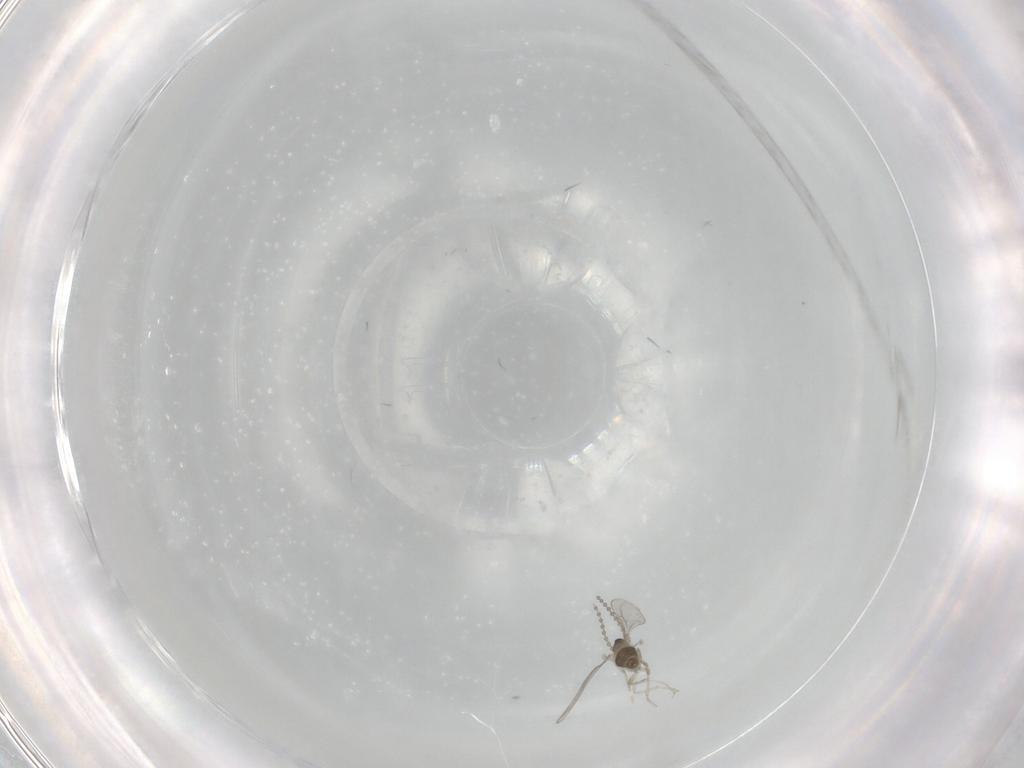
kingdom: Animalia
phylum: Arthropoda
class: Insecta
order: Diptera
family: Cecidomyiidae
